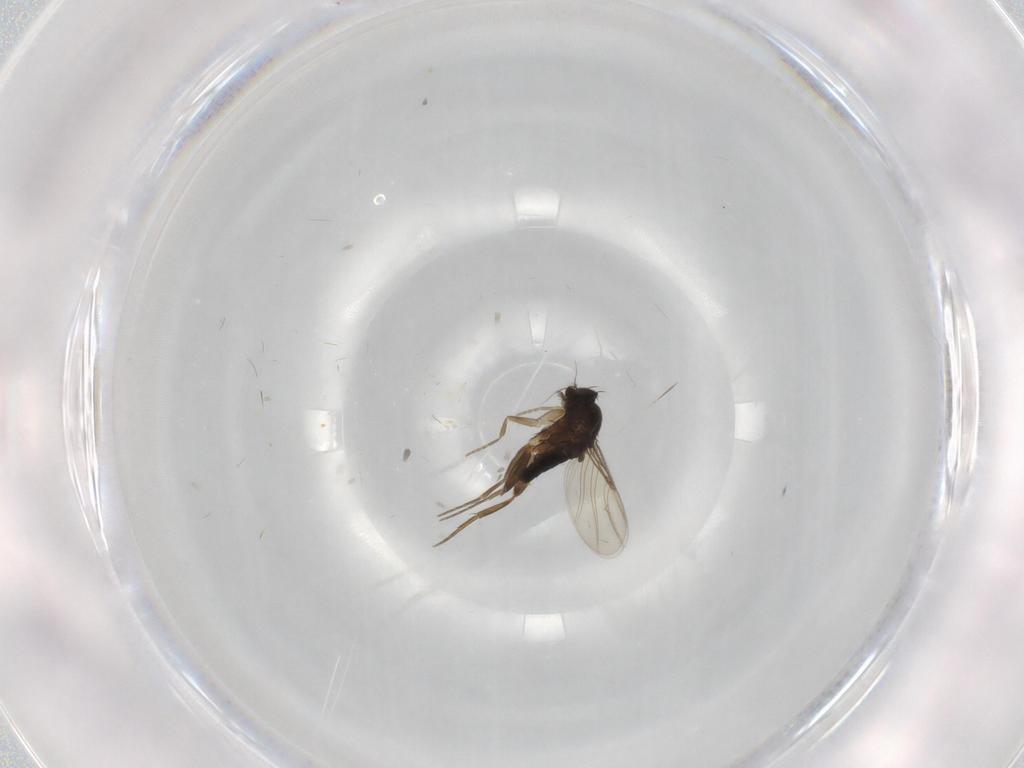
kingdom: Animalia
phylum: Arthropoda
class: Insecta
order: Diptera
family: Phoridae
